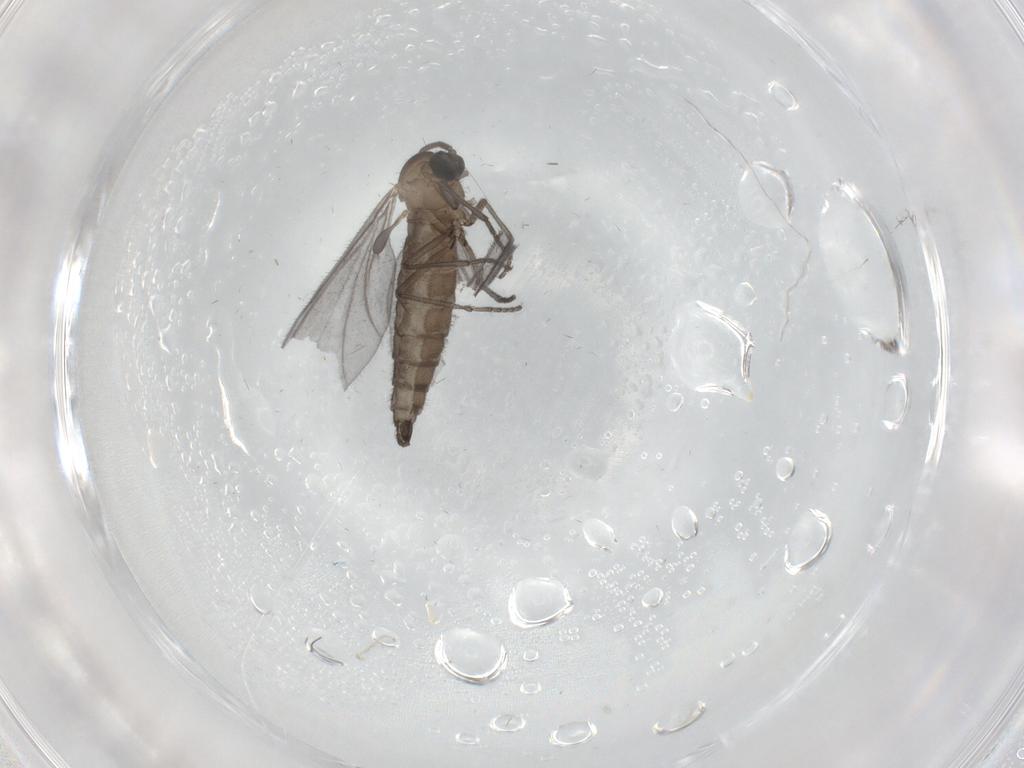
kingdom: Animalia
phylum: Arthropoda
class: Insecta
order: Diptera
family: Sciaridae
